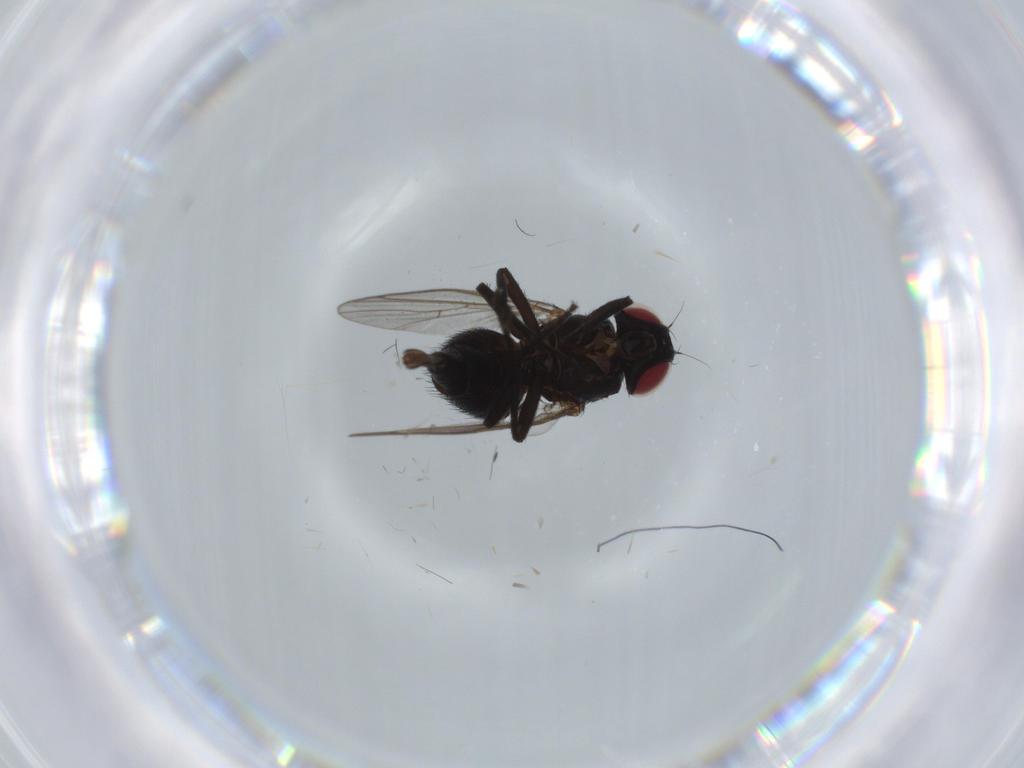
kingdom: Animalia
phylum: Arthropoda
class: Insecta
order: Diptera
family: Agromyzidae
